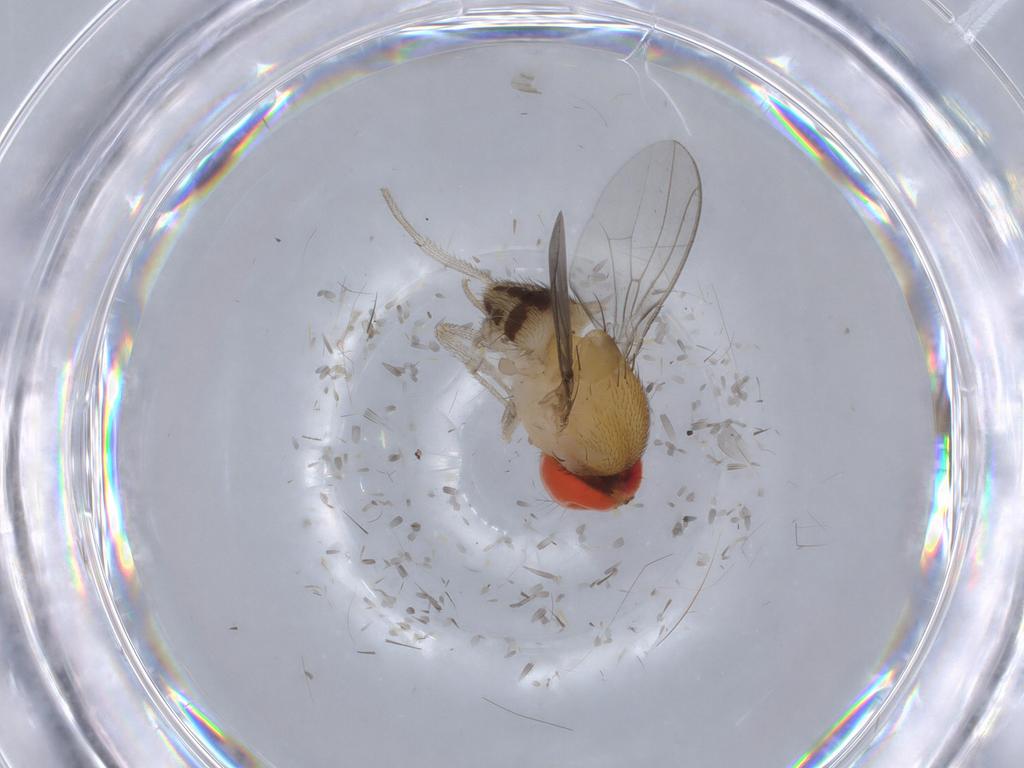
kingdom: Animalia
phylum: Arthropoda
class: Insecta
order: Diptera
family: Drosophilidae
